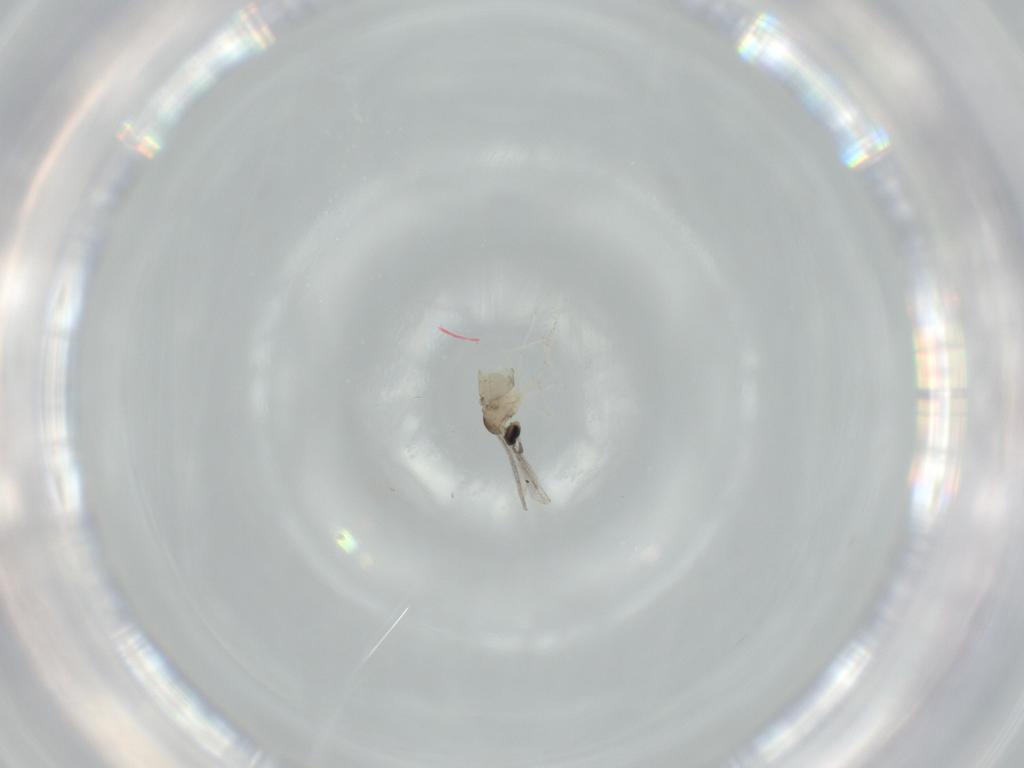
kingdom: Animalia
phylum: Arthropoda
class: Insecta
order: Diptera
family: Cecidomyiidae
